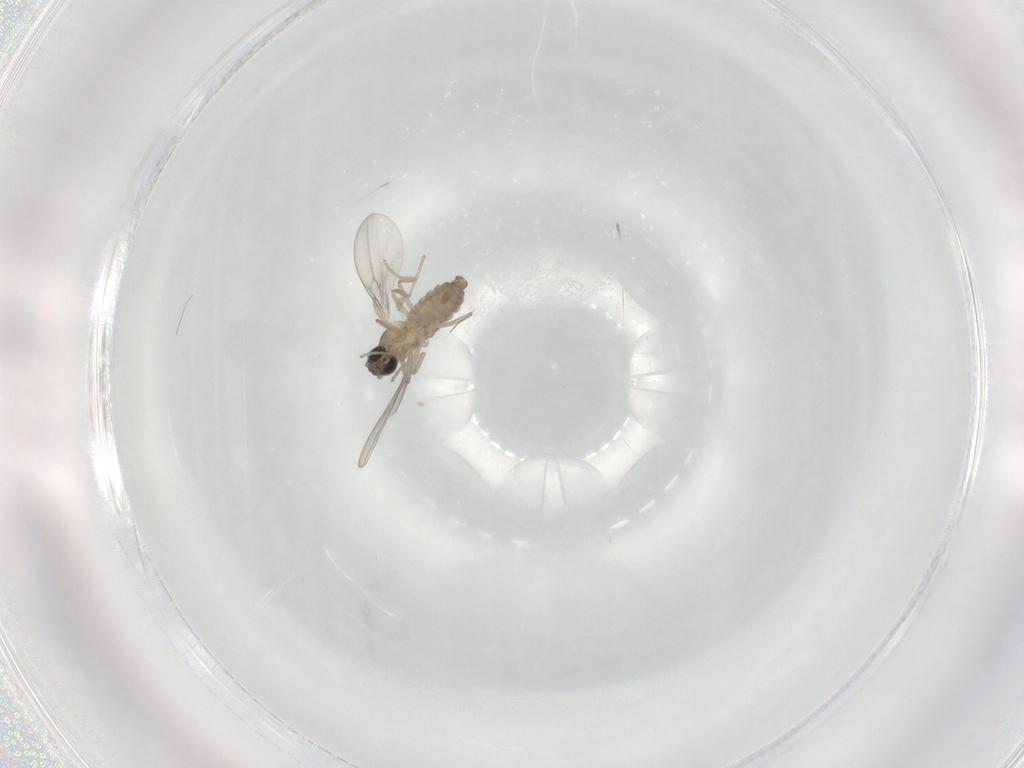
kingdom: Animalia
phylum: Arthropoda
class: Insecta
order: Diptera
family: Cecidomyiidae
